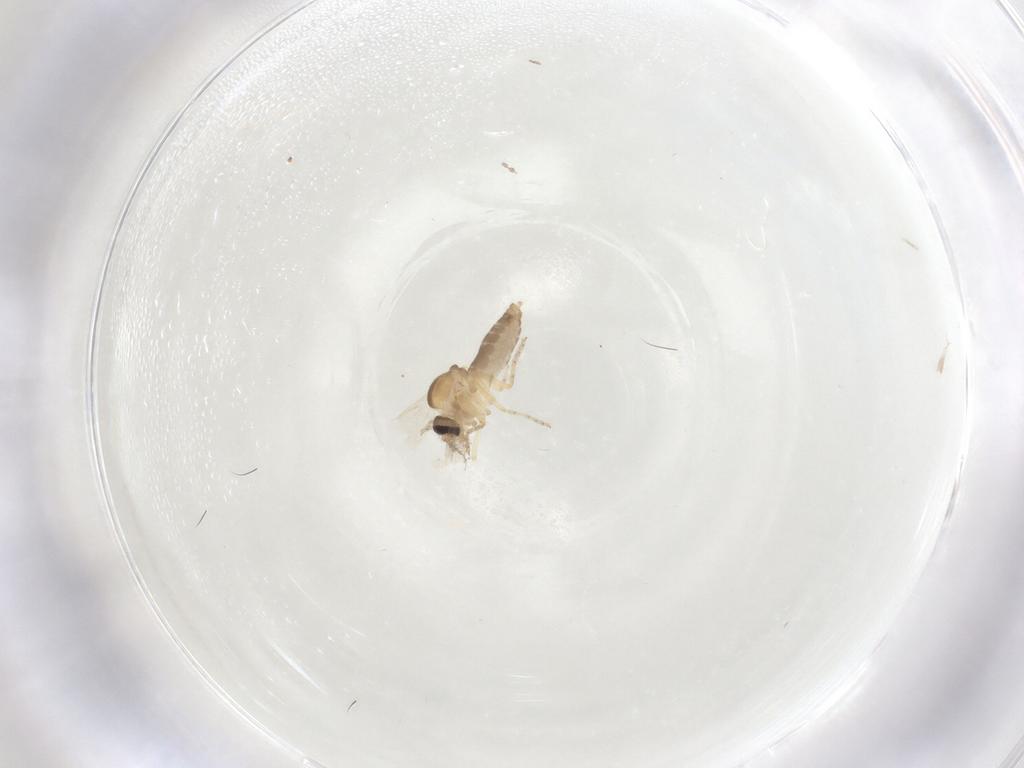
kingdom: Animalia
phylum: Arthropoda
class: Insecta
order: Diptera
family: Ceratopogonidae
